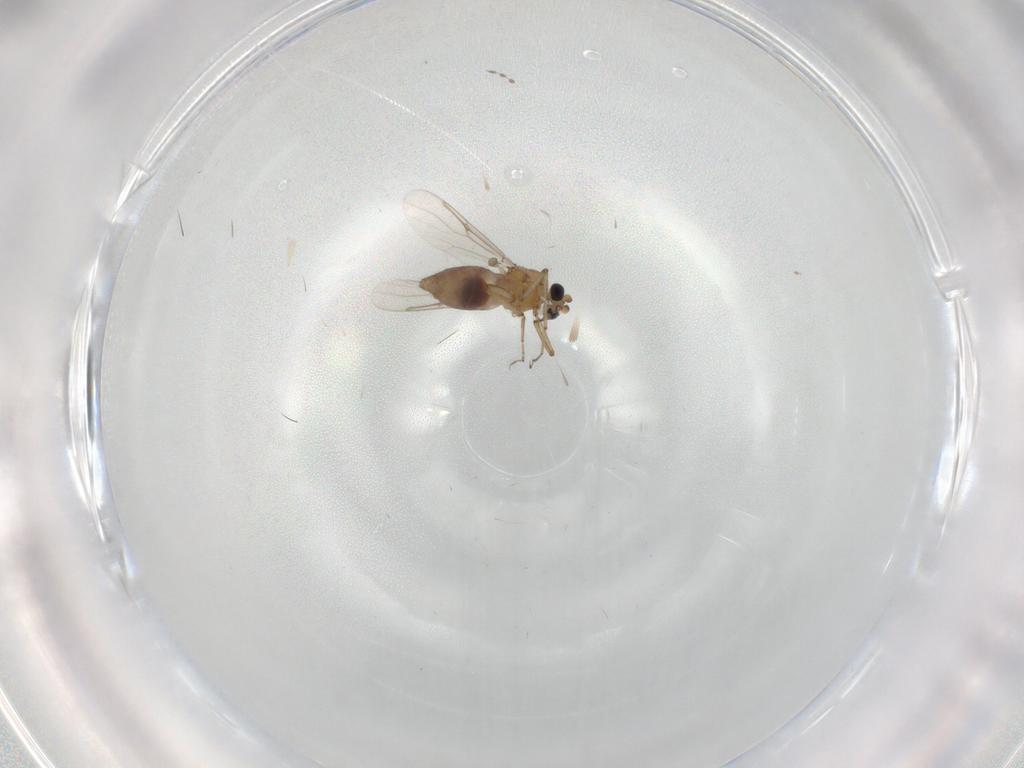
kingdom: Animalia
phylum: Arthropoda
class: Insecta
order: Diptera
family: Ceratopogonidae
